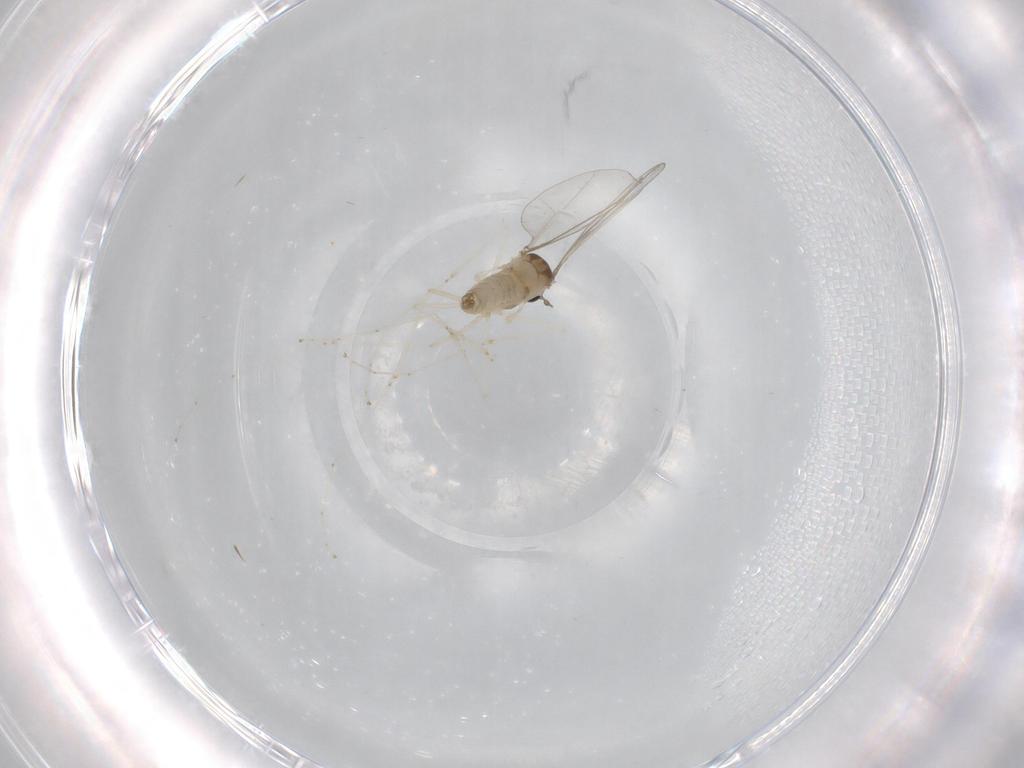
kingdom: Animalia
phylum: Arthropoda
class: Insecta
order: Diptera
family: Cecidomyiidae
